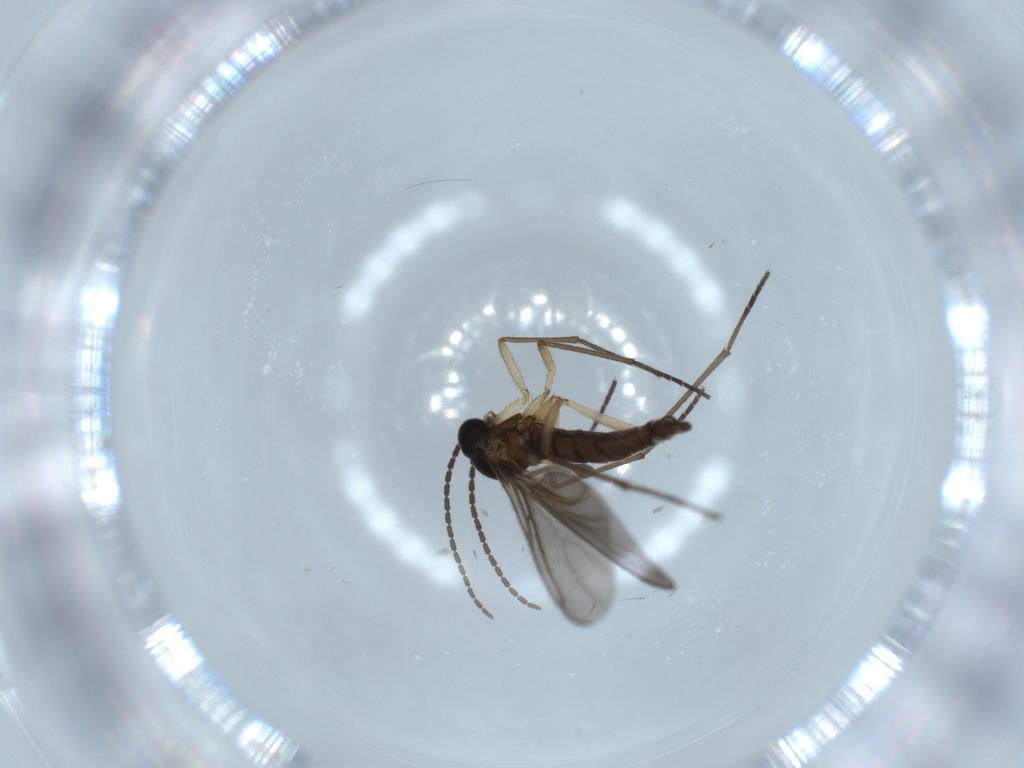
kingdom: Animalia
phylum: Arthropoda
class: Insecta
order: Diptera
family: Sciaridae
